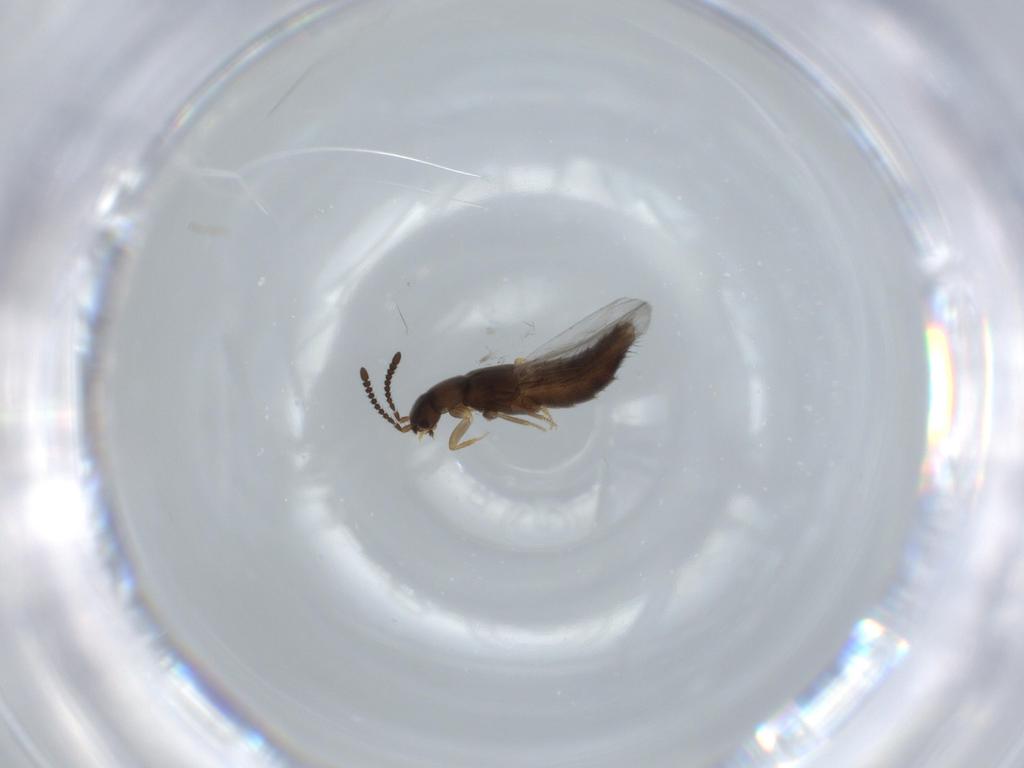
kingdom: Animalia
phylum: Arthropoda
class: Insecta
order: Coleoptera
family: Staphylinidae
